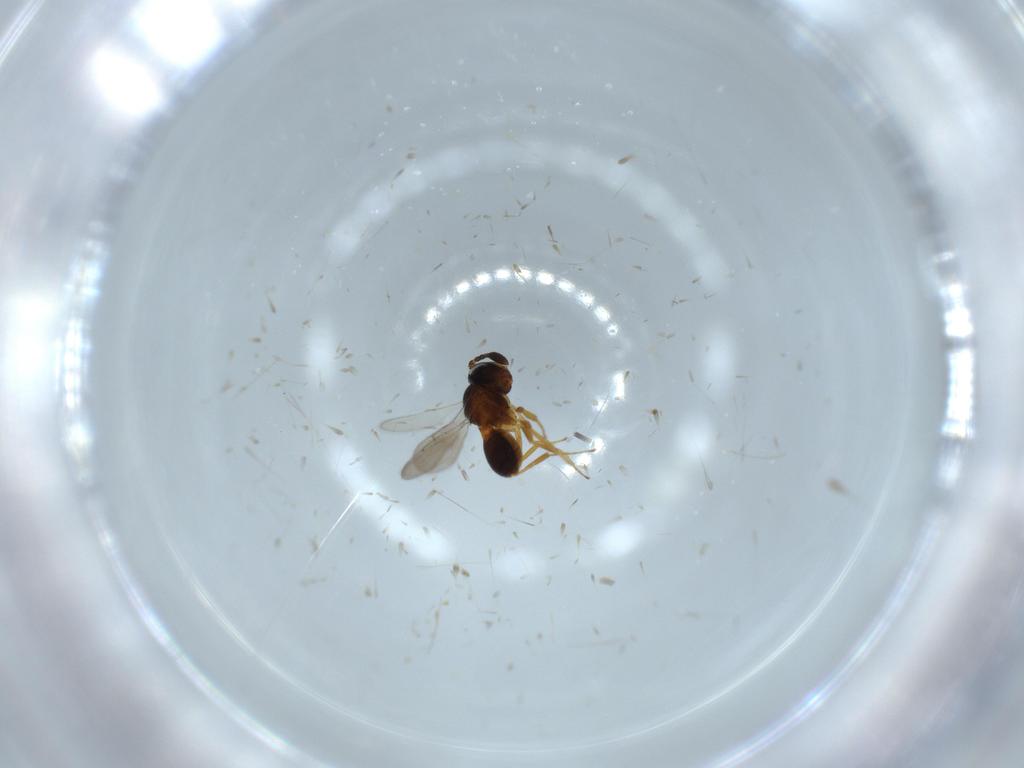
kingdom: Animalia
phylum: Arthropoda
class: Insecta
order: Hymenoptera
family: Scelionidae
